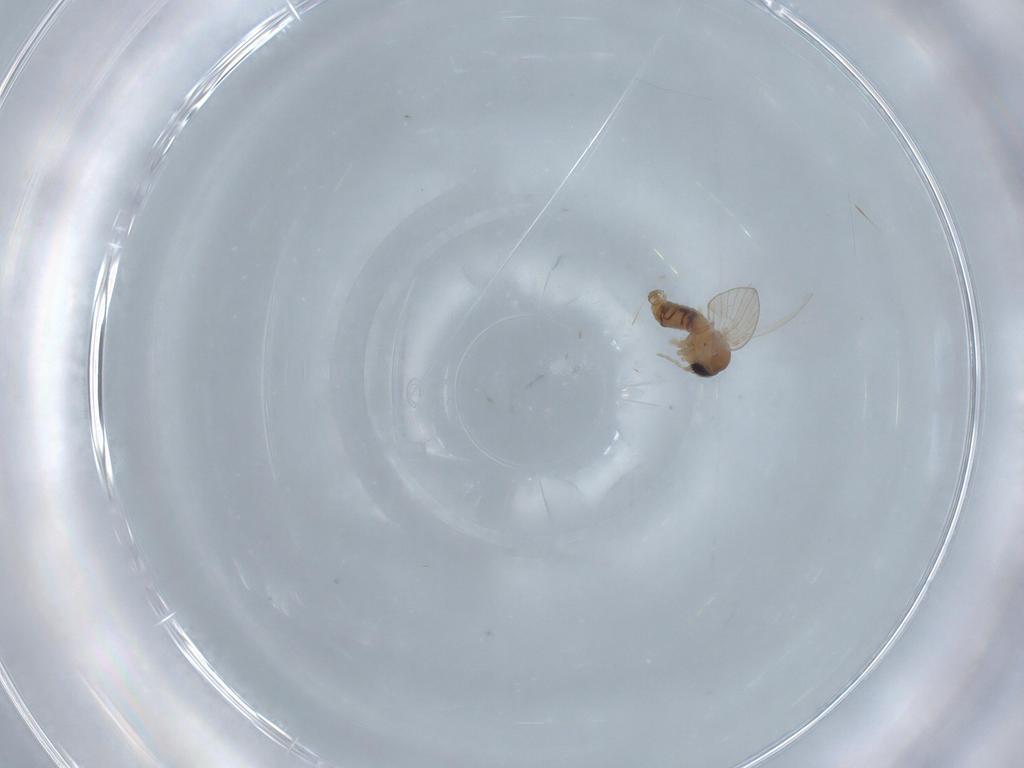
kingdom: Animalia
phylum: Arthropoda
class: Insecta
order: Diptera
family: Psychodidae
